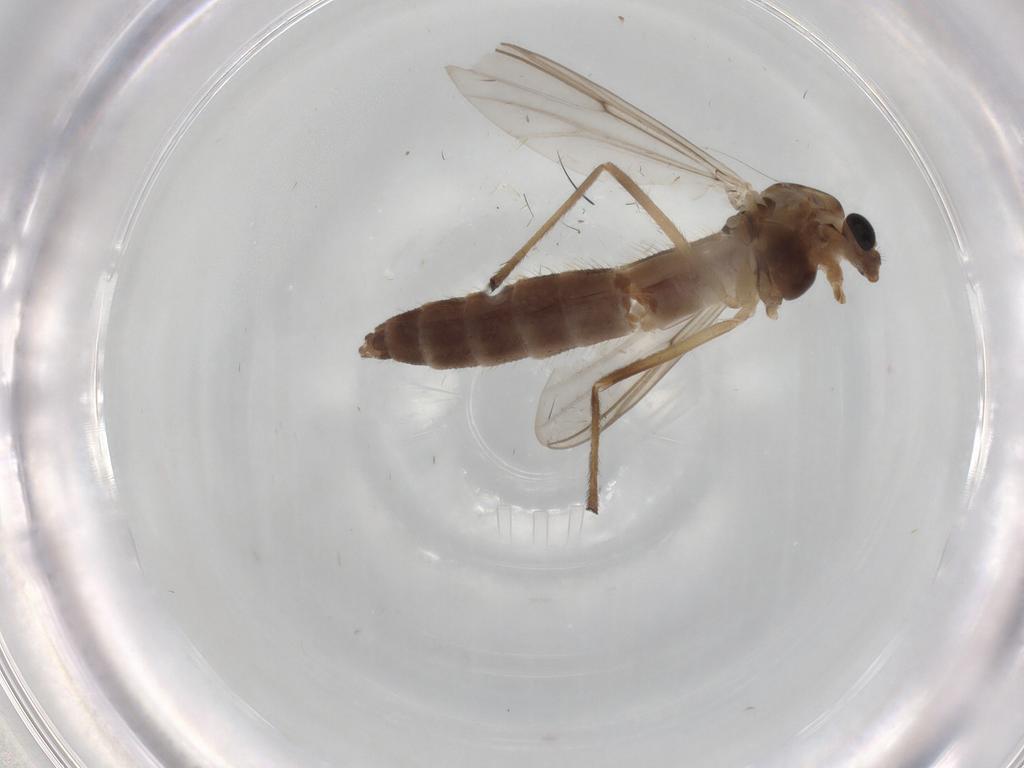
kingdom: Animalia
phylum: Arthropoda
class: Insecta
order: Diptera
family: Chironomidae
